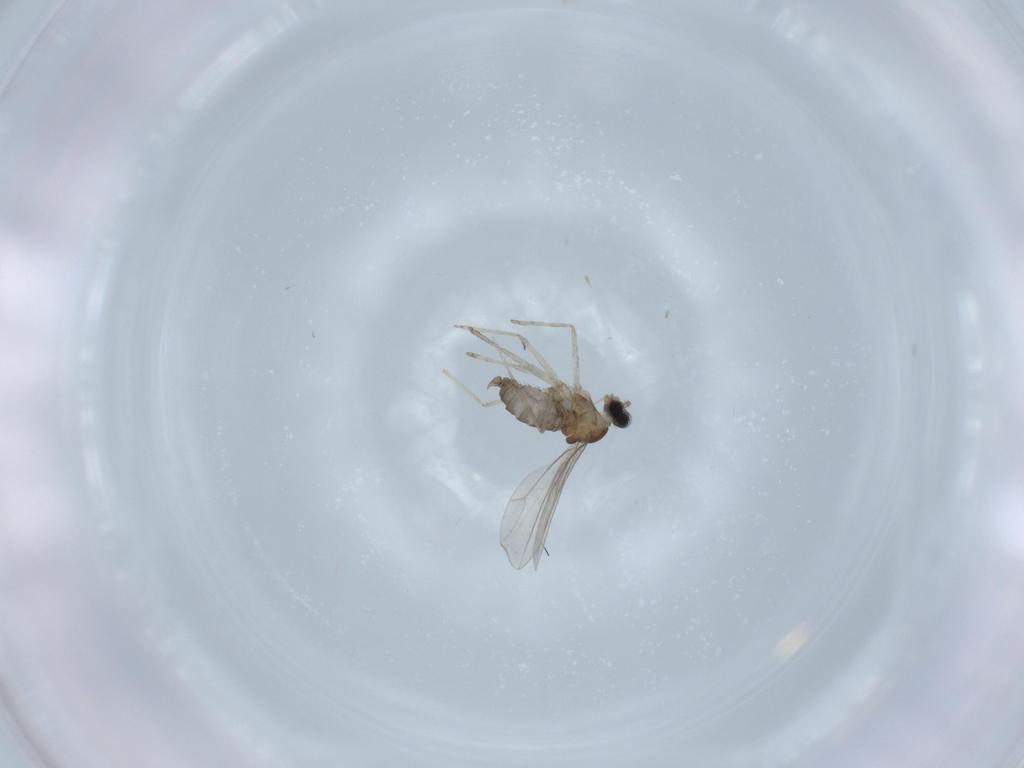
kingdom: Animalia
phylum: Arthropoda
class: Insecta
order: Diptera
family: Cecidomyiidae
